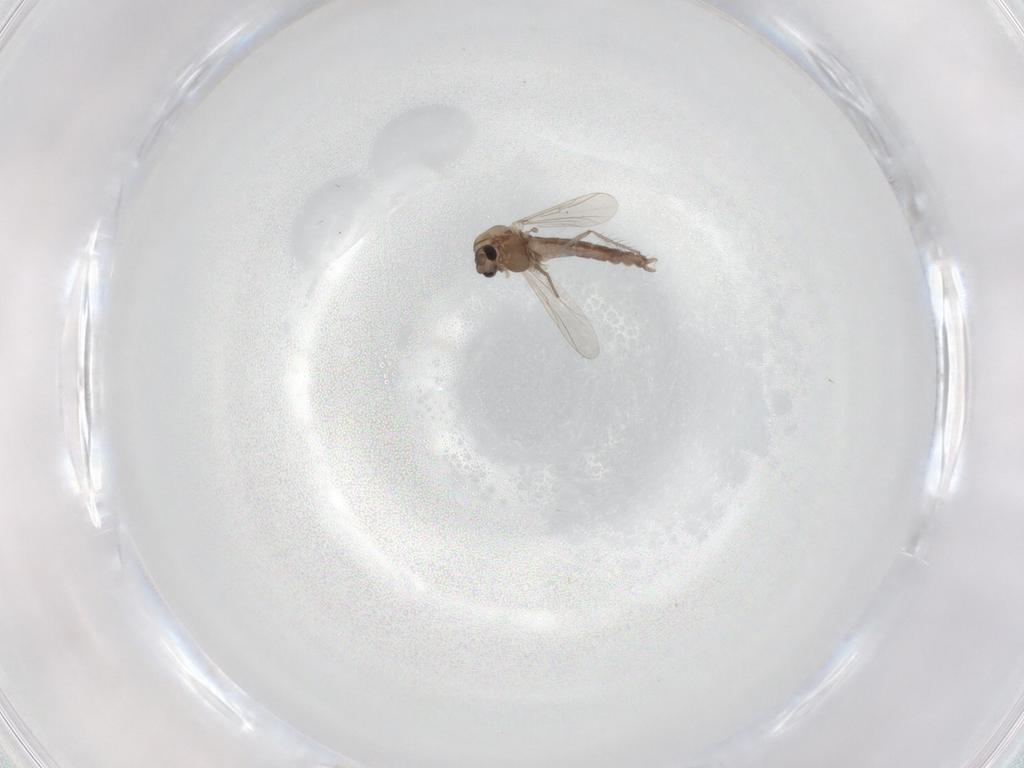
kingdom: Animalia
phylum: Arthropoda
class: Insecta
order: Diptera
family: Chironomidae
